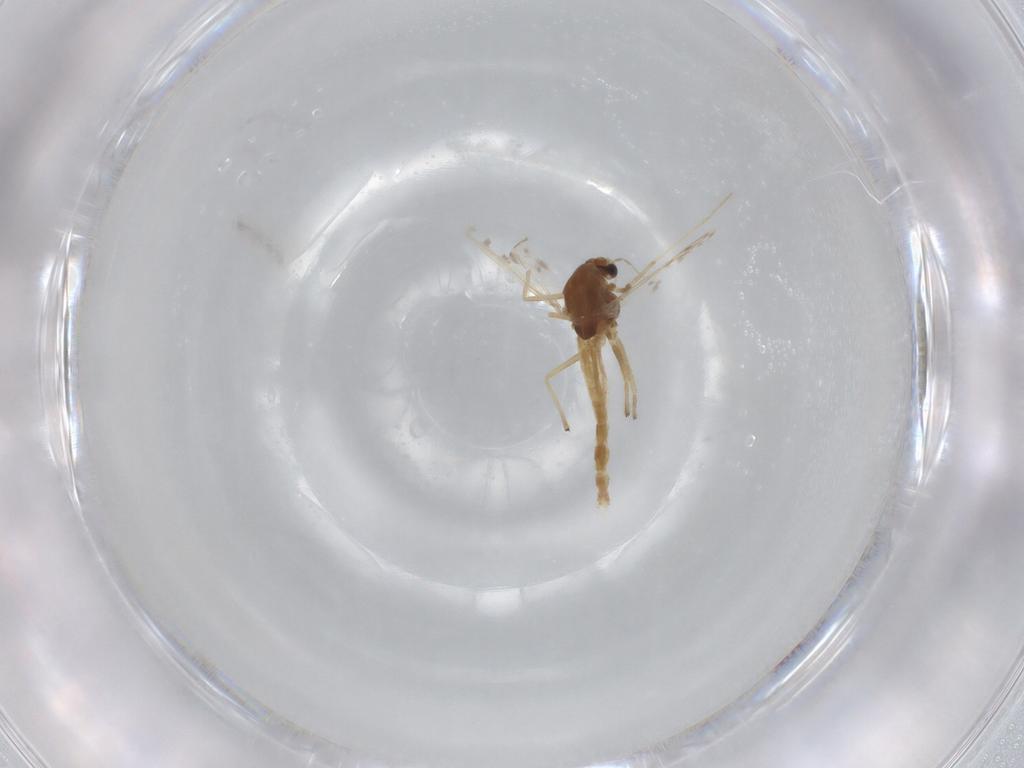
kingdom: Animalia
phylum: Arthropoda
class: Insecta
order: Diptera
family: Chironomidae
